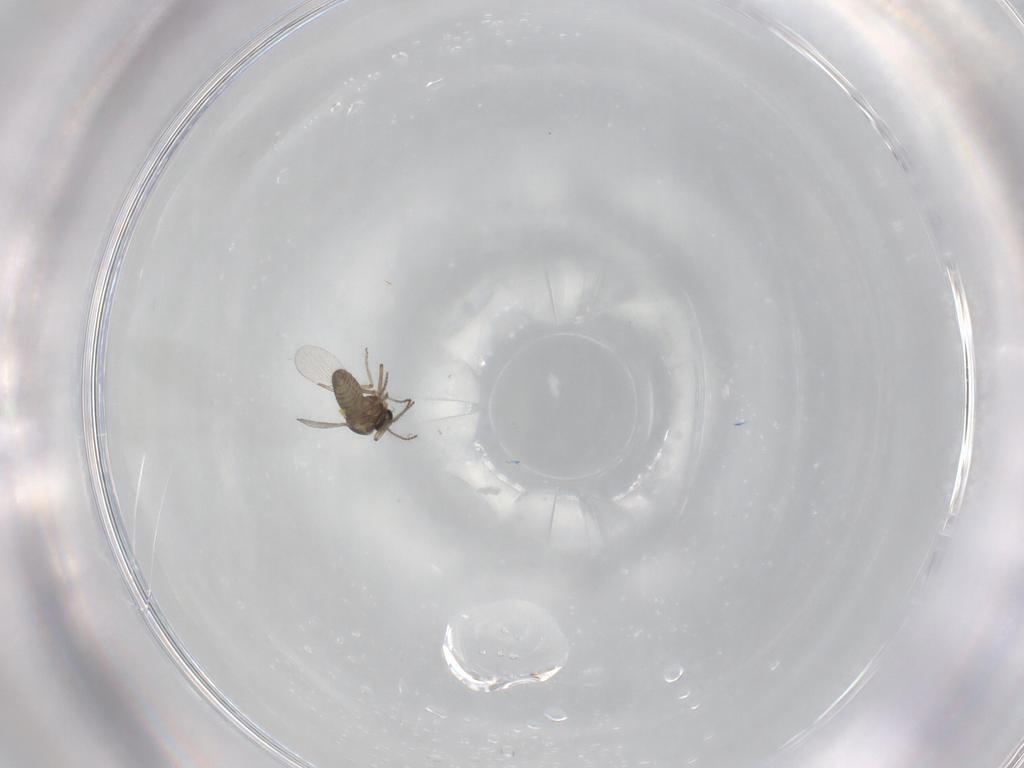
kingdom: Animalia
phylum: Arthropoda
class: Insecta
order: Diptera
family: Ceratopogonidae
